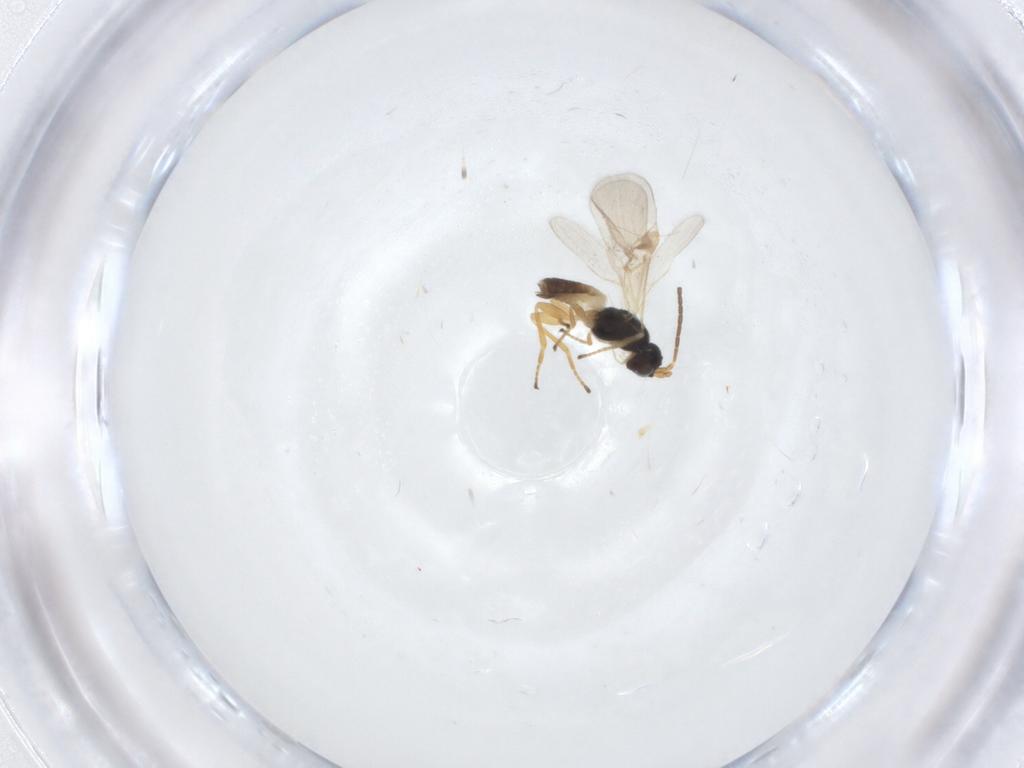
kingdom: Animalia
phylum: Arthropoda
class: Insecta
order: Hymenoptera
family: Braconidae
